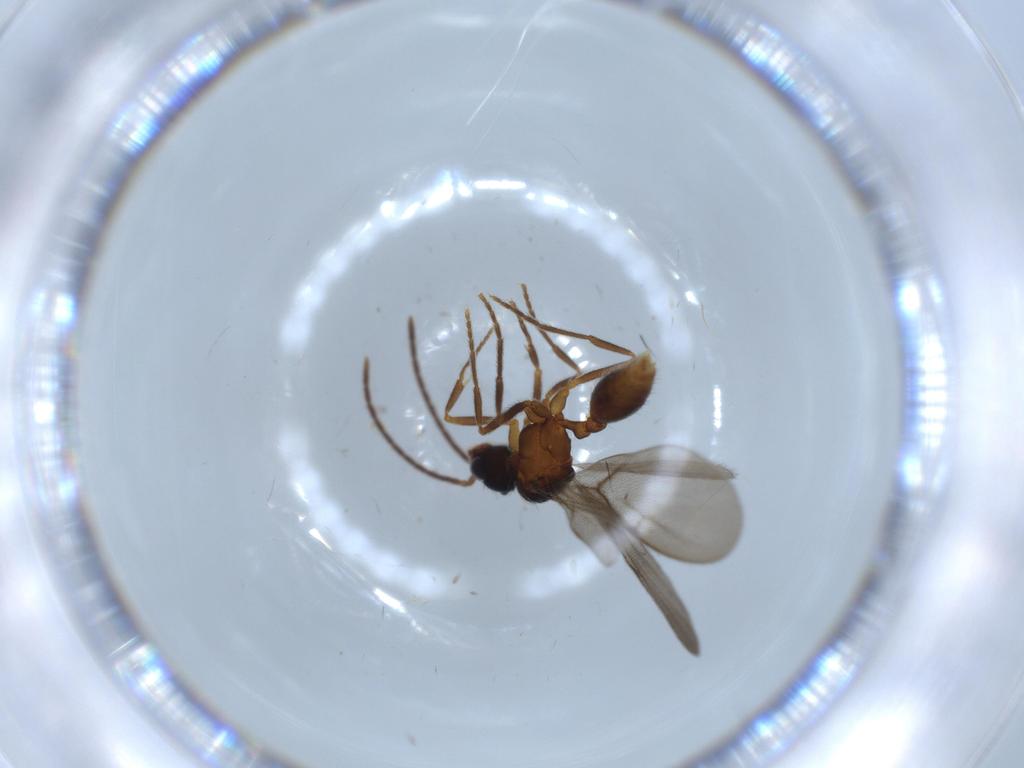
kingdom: Animalia
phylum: Arthropoda
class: Insecta
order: Hymenoptera
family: Formicidae
